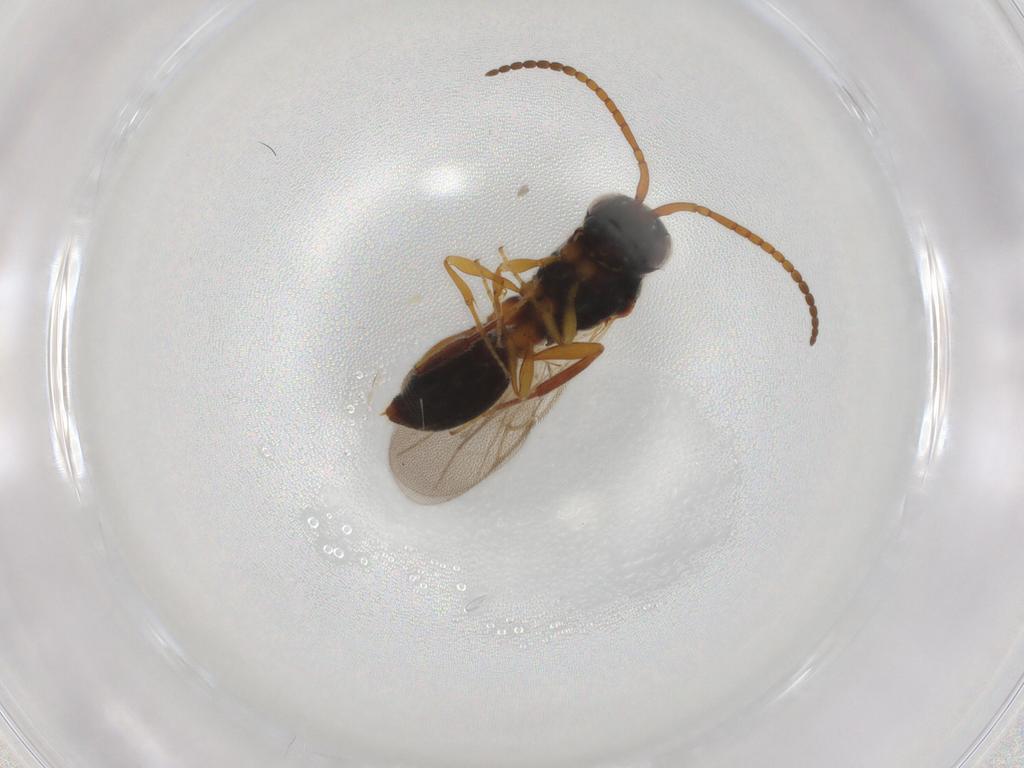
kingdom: Animalia
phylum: Arthropoda
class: Insecta
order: Hymenoptera
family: Diapriidae
